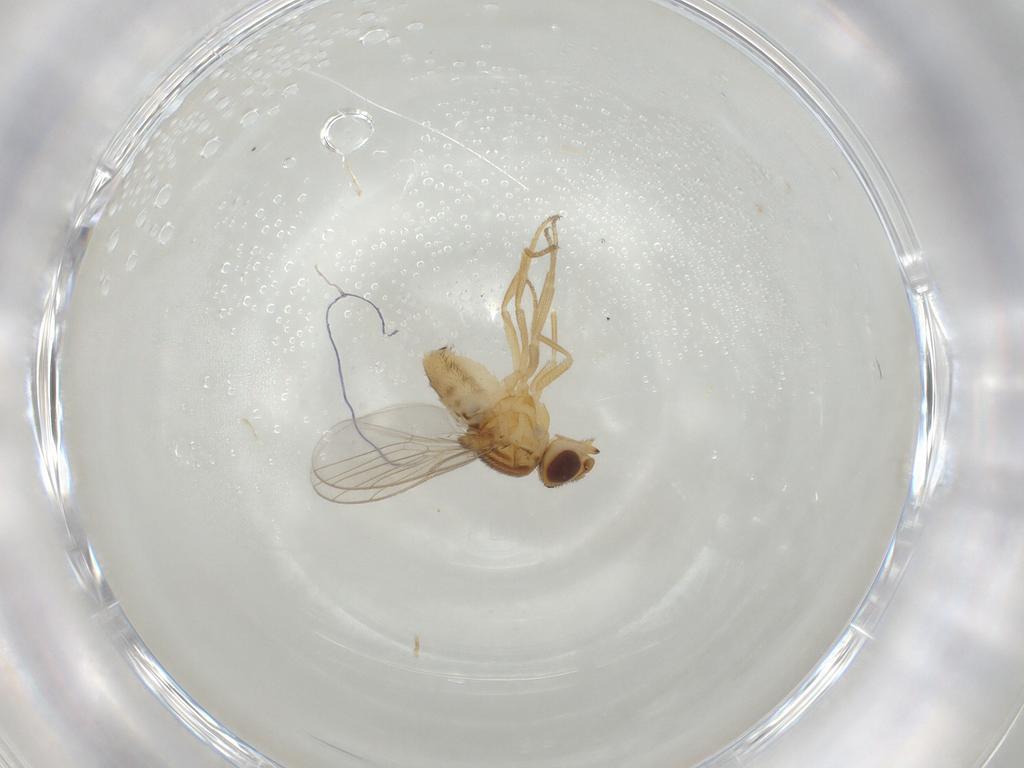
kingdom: Animalia
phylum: Arthropoda
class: Insecta
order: Diptera
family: Chloropidae
